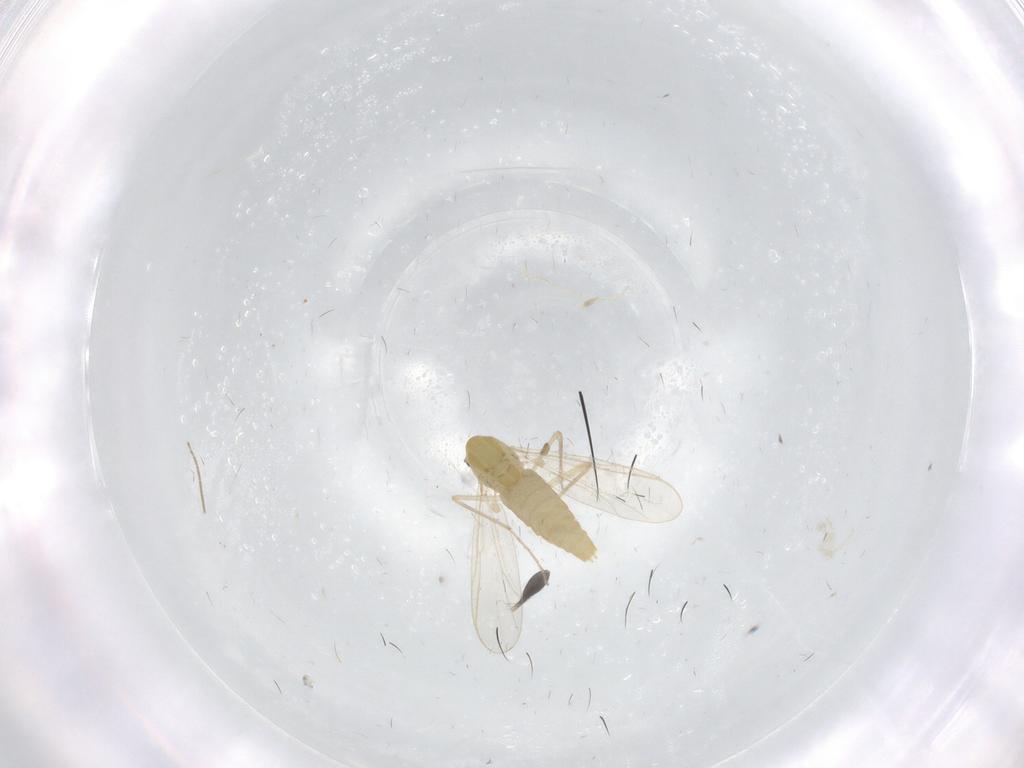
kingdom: Animalia
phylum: Arthropoda
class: Insecta
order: Diptera
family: Chironomidae
